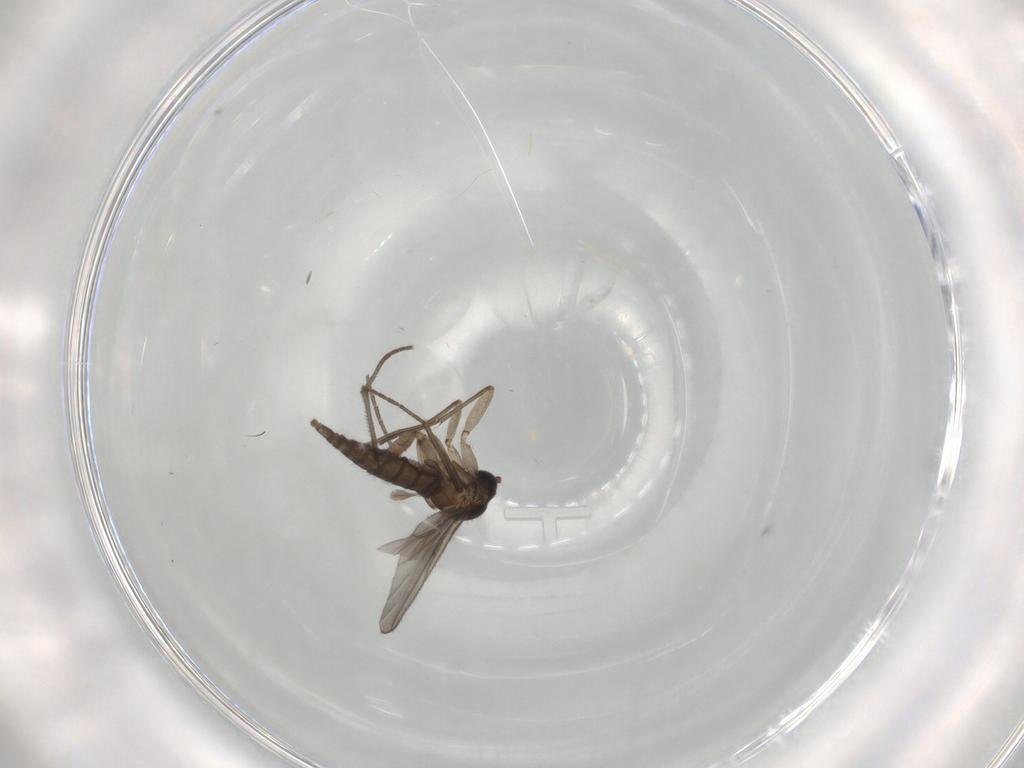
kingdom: Animalia
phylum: Arthropoda
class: Insecta
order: Diptera
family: Sciaridae
